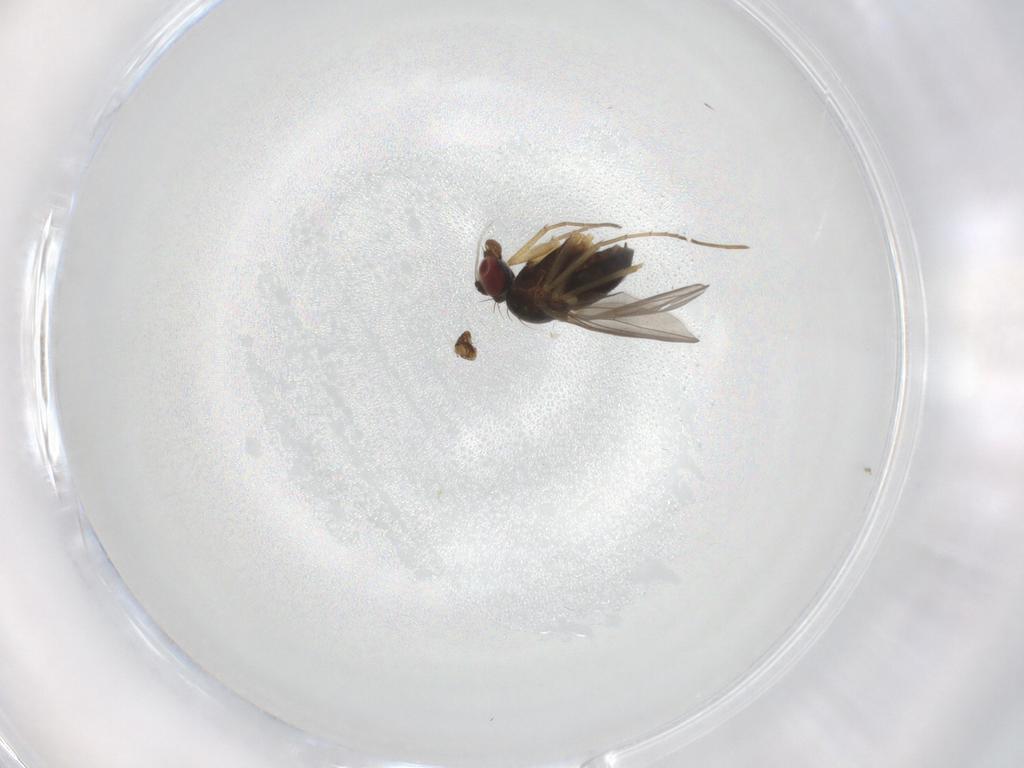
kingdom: Animalia
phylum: Arthropoda
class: Insecta
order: Diptera
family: Dolichopodidae
